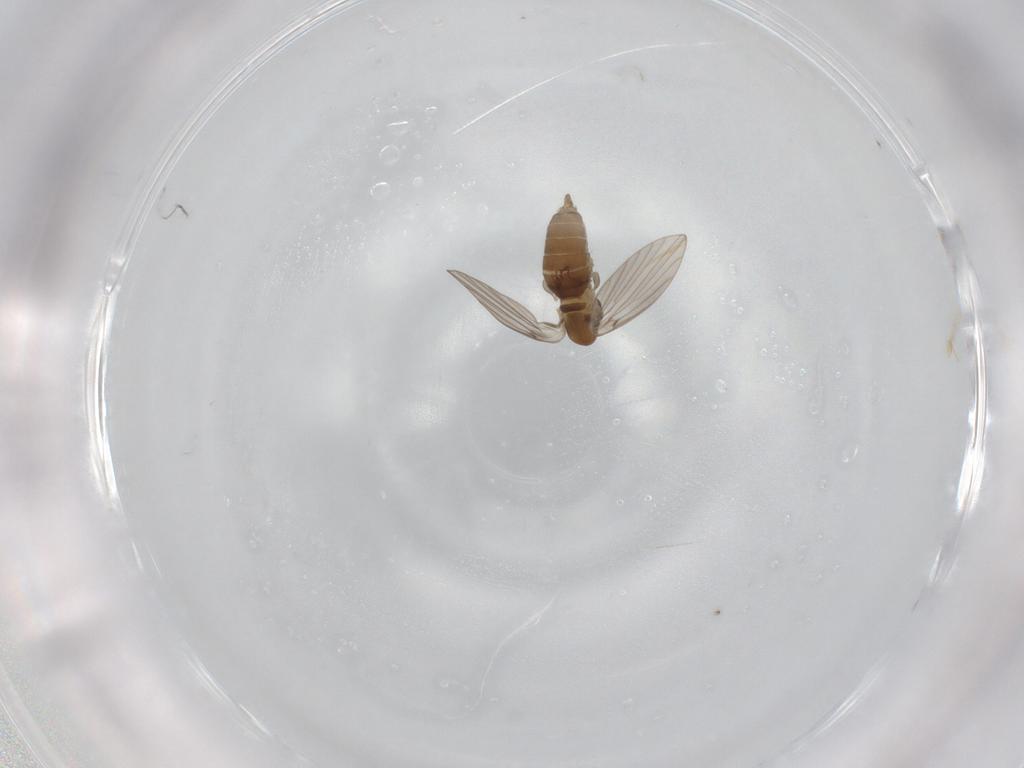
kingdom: Animalia
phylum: Arthropoda
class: Insecta
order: Diptera
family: Psychodidae
